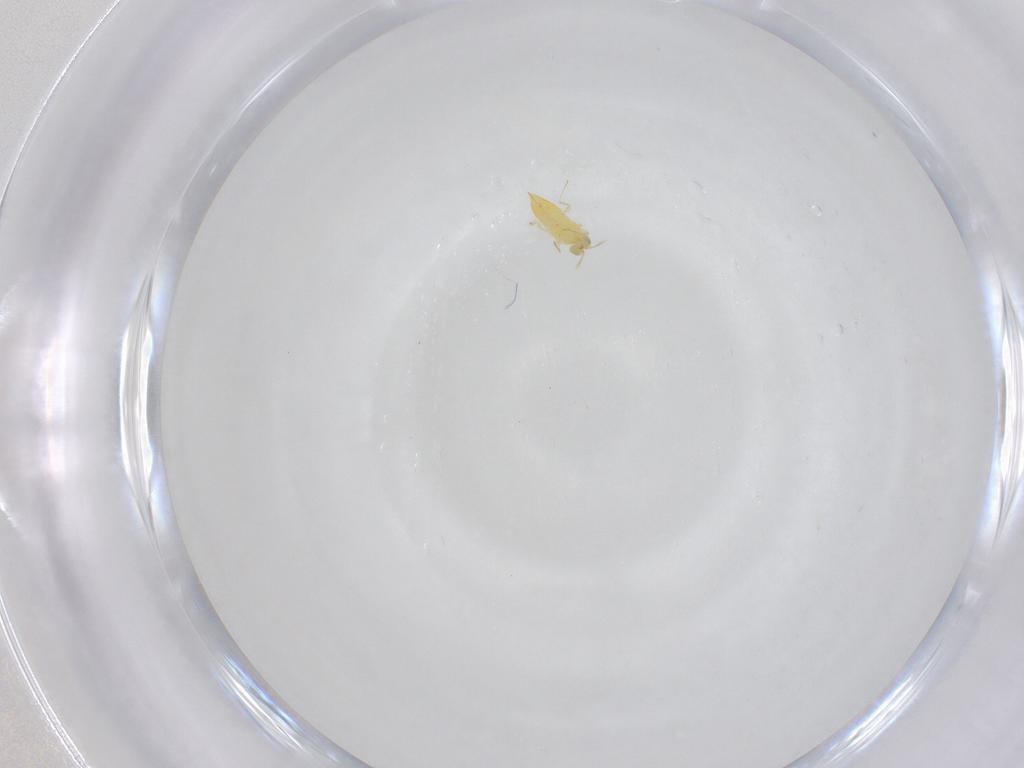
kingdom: Animalia
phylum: Arthropoda
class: Insecta
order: Hymenoptera
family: Aphelinidae
